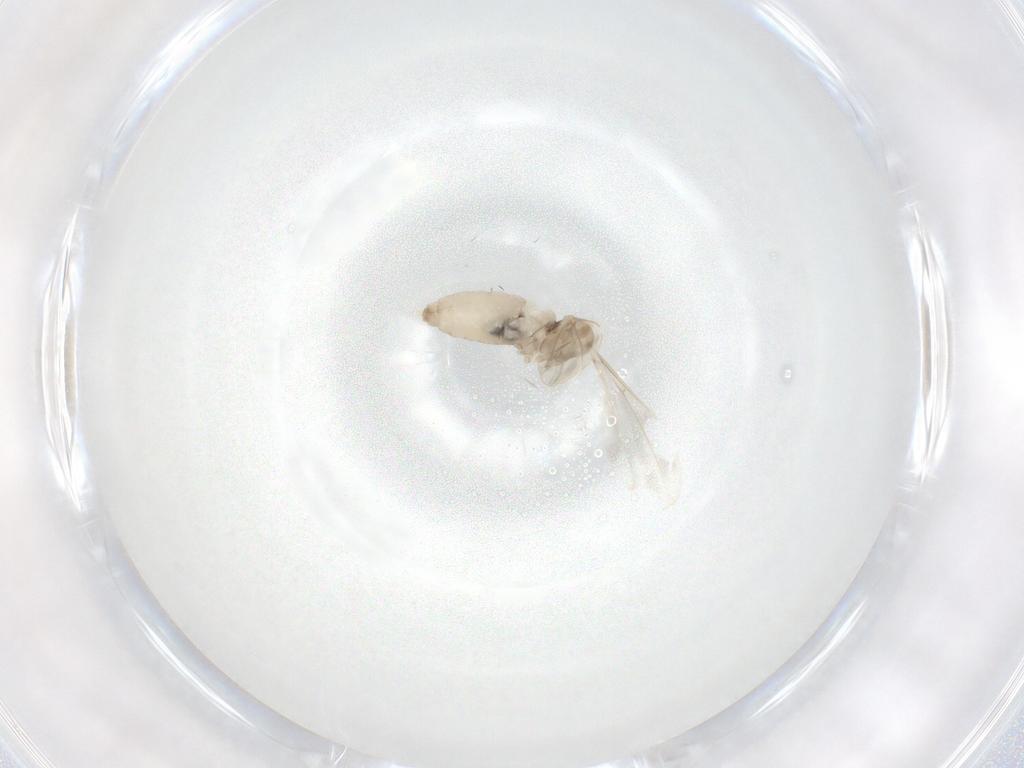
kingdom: Animalia
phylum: Arthropoda
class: Insecta
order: Diptera
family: Cecidomyiidae
